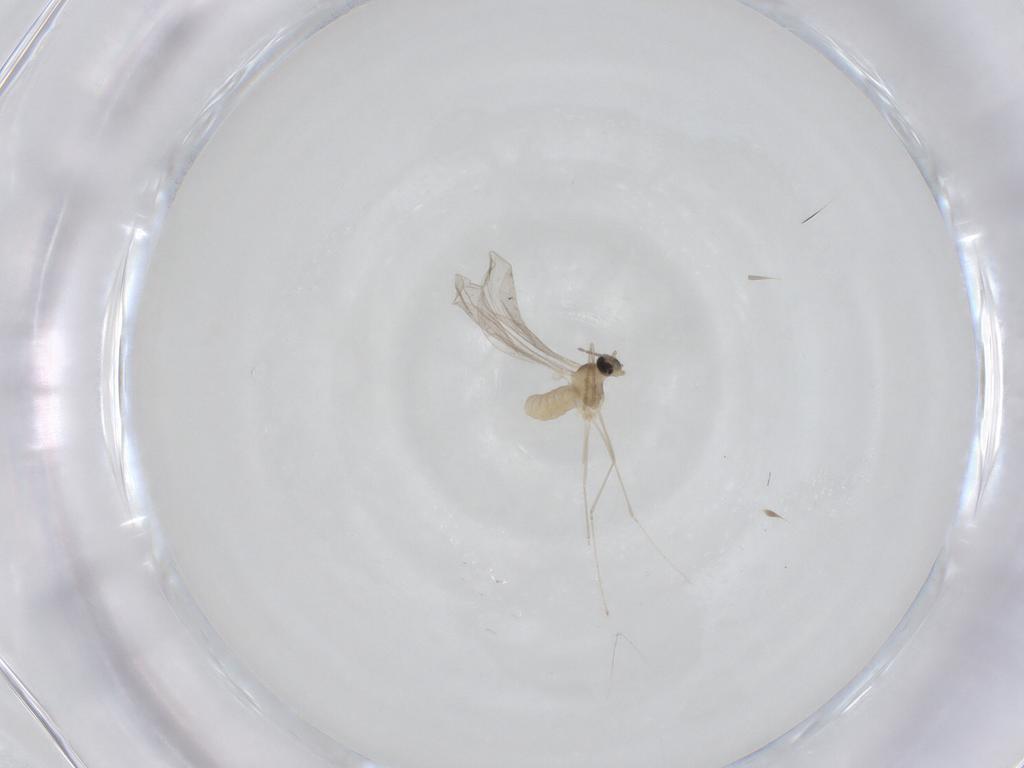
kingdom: Animalia
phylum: Arthropoda
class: Insecta
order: Diptera
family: Cecidomyiidae
